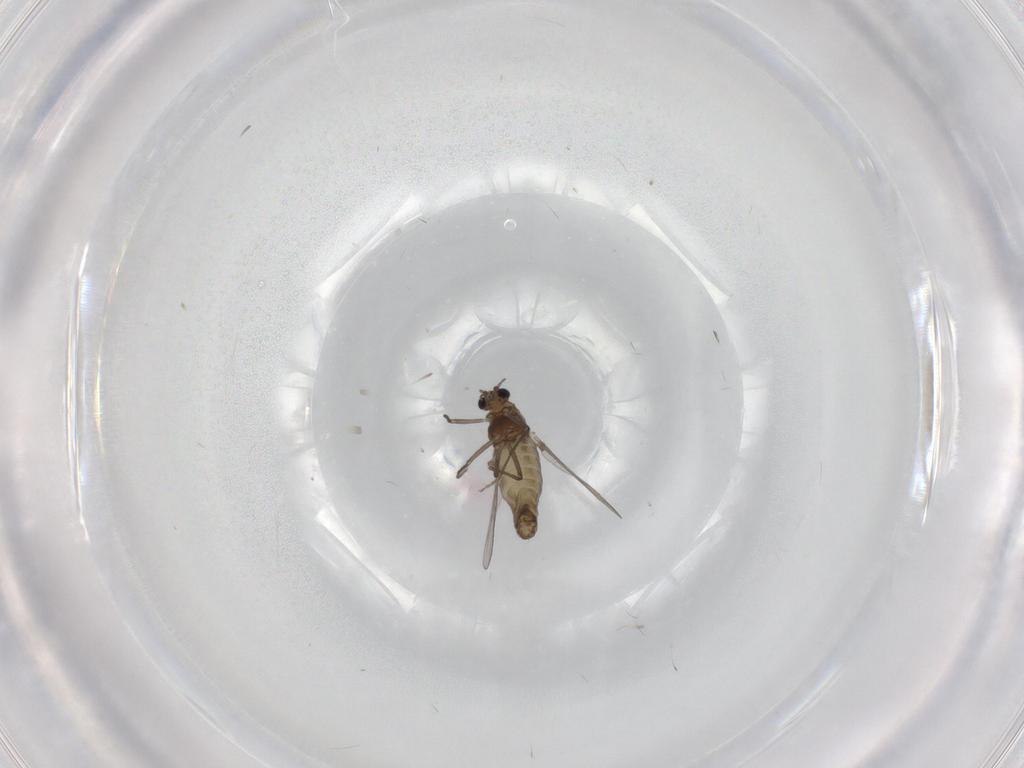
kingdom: Animalia
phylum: Arthropoda
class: Insecta
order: Diptera
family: Chironomidae
